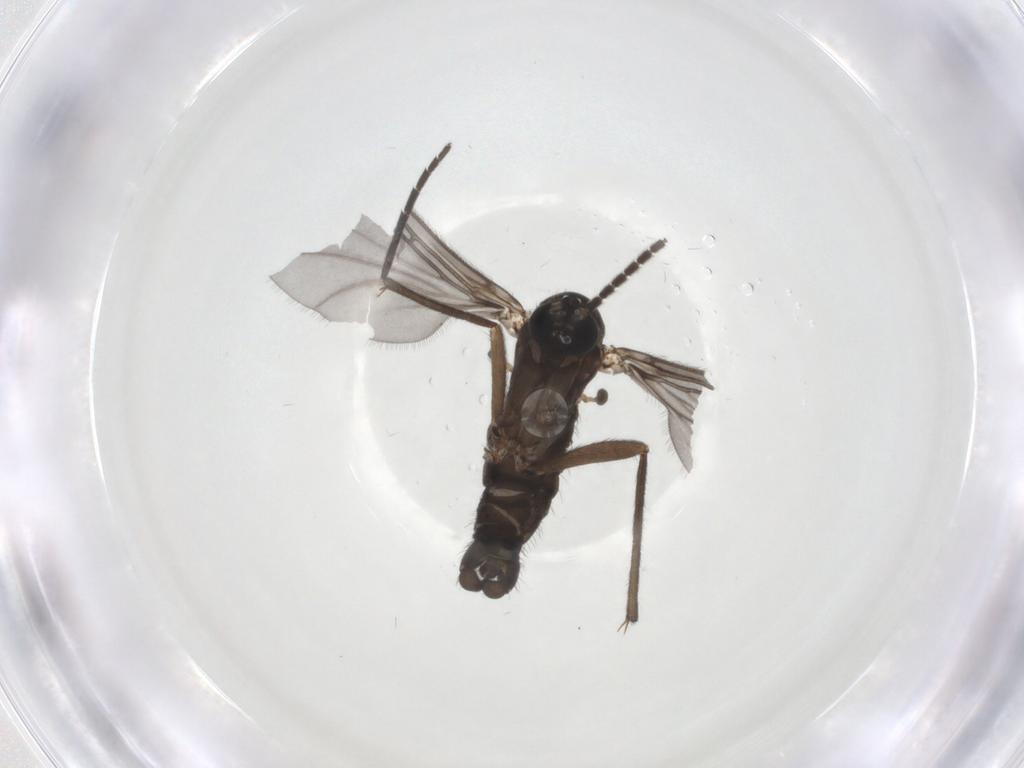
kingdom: Animalia
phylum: Arthropoda
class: Insecta
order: Diptera
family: Sciaridae
